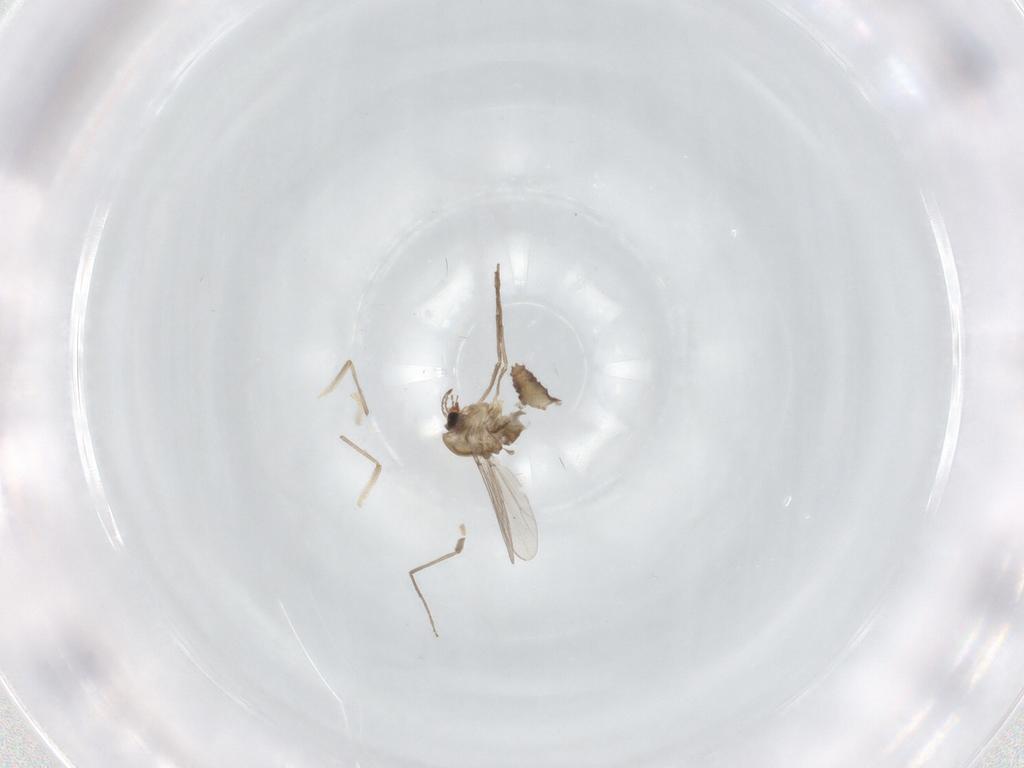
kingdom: Animalia
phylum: Arthropoda
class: Insecta
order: Diptera
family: Chironomidae
